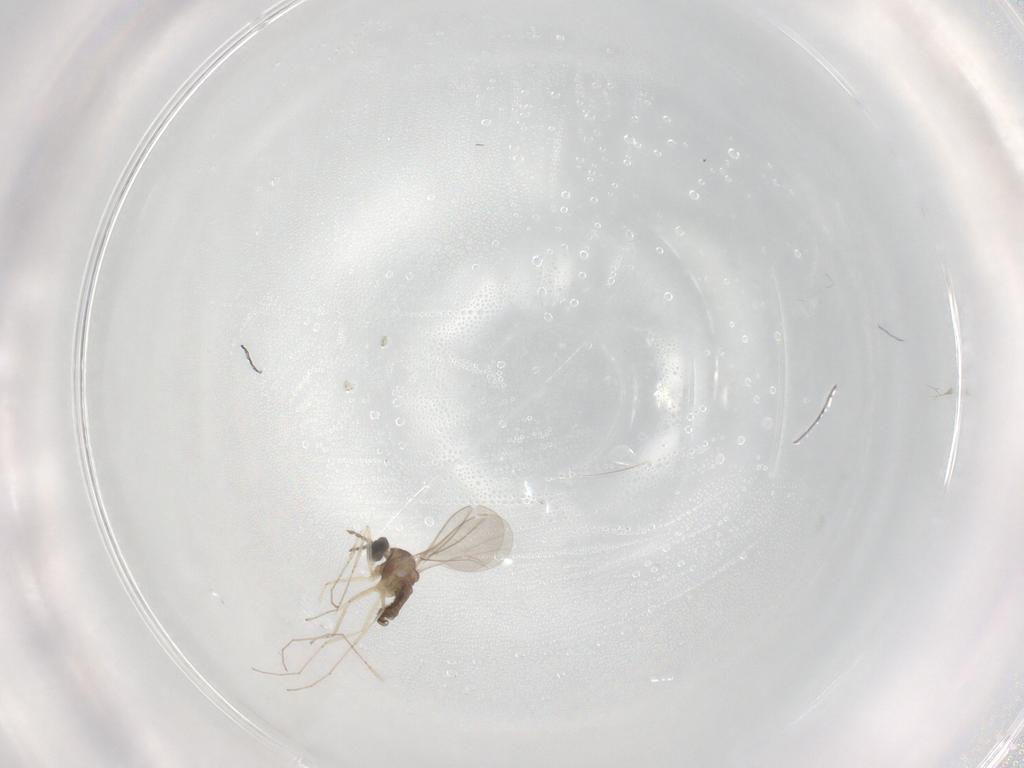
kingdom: Animalia
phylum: Arthropoda
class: Insecta
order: Diptera
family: Cecidomyiidae
